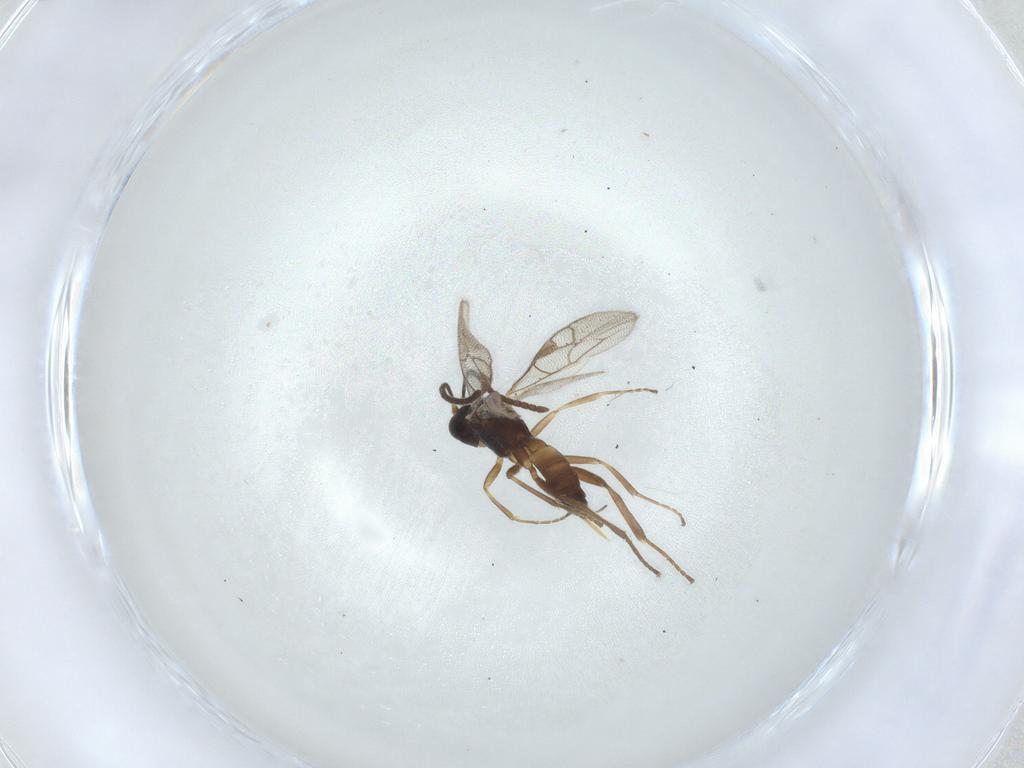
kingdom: Animalia
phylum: Arthropoda
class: Insecta
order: Hymenoptera
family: Ichneumonidae
